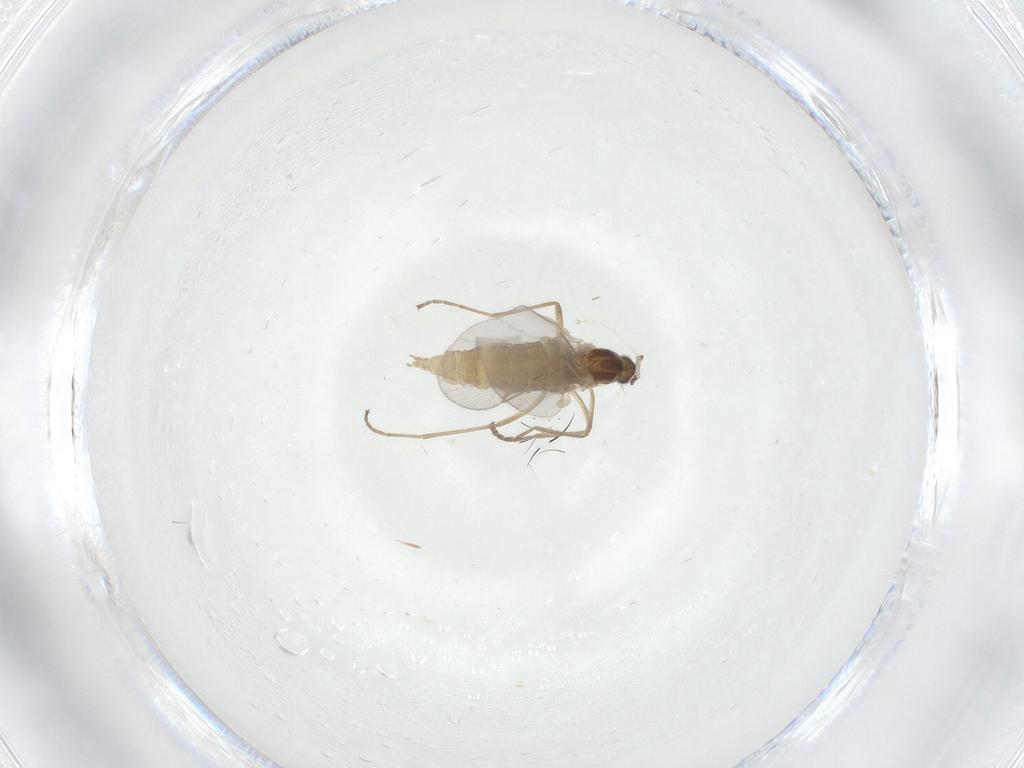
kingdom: Animalia
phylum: Arthropoda
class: Insecta
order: Diptera
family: Cecidomyiidae
